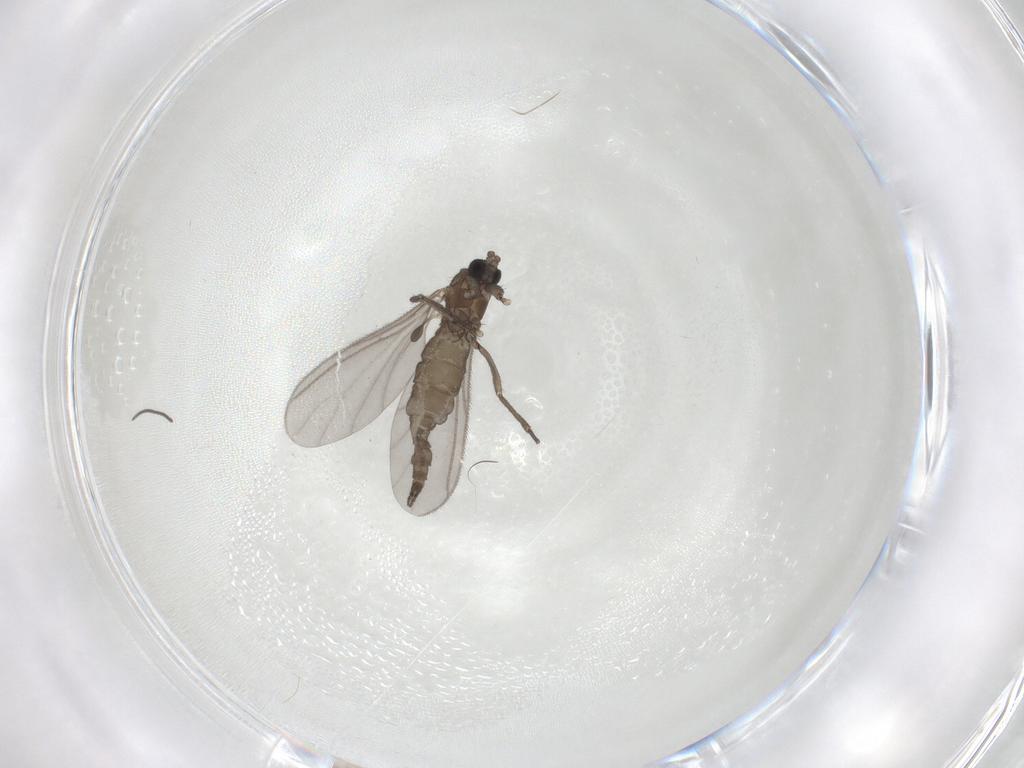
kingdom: Animalia
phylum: Arthropoda
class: Insecta
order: Diptera
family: Sciaridae
